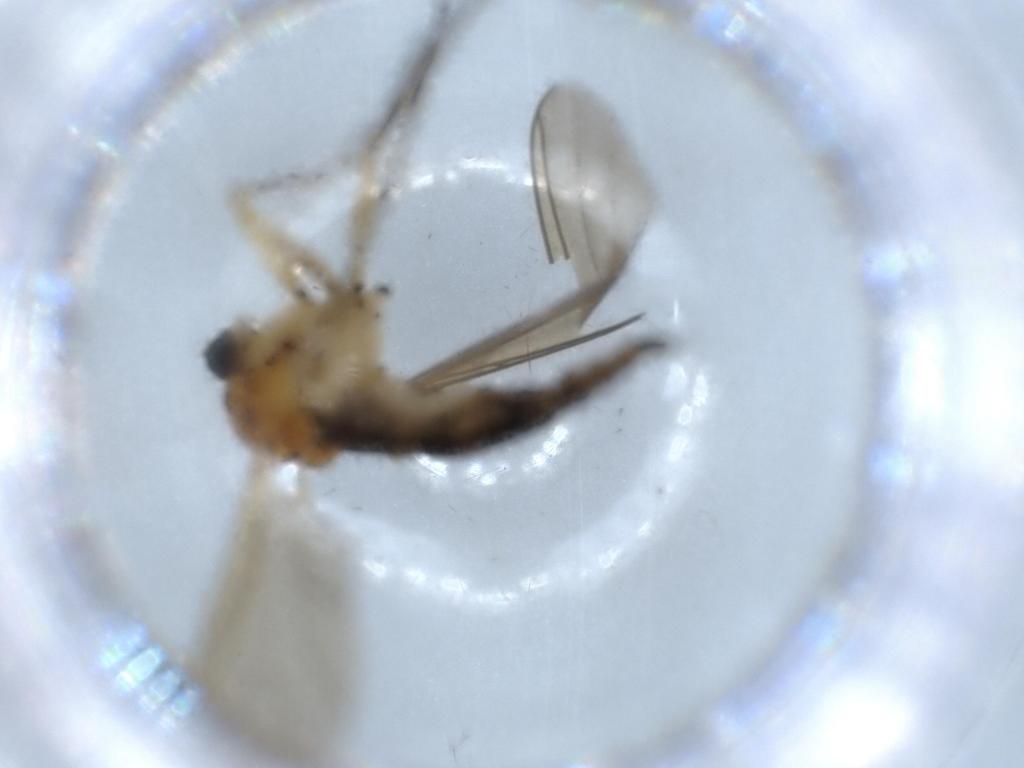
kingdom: Animalia
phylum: Arthropoda
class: Insecta
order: Diptera
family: Sciaridae
